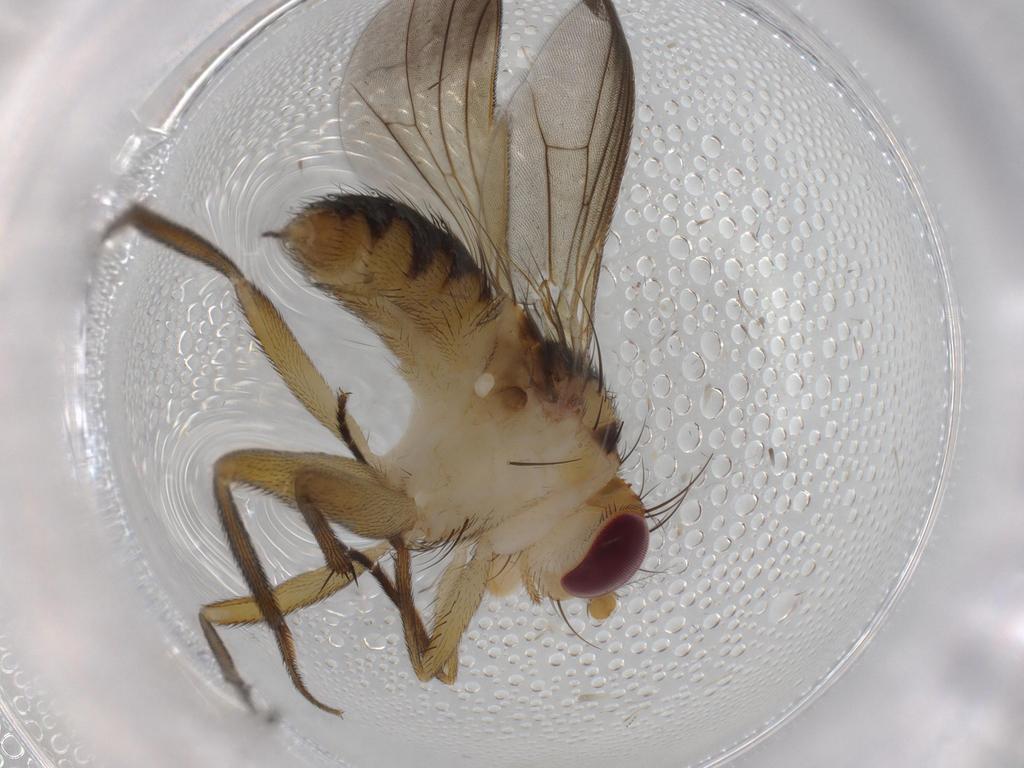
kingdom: Animalia
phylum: Arthropoda
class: Insecta
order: Diptera
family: Clusiidae
